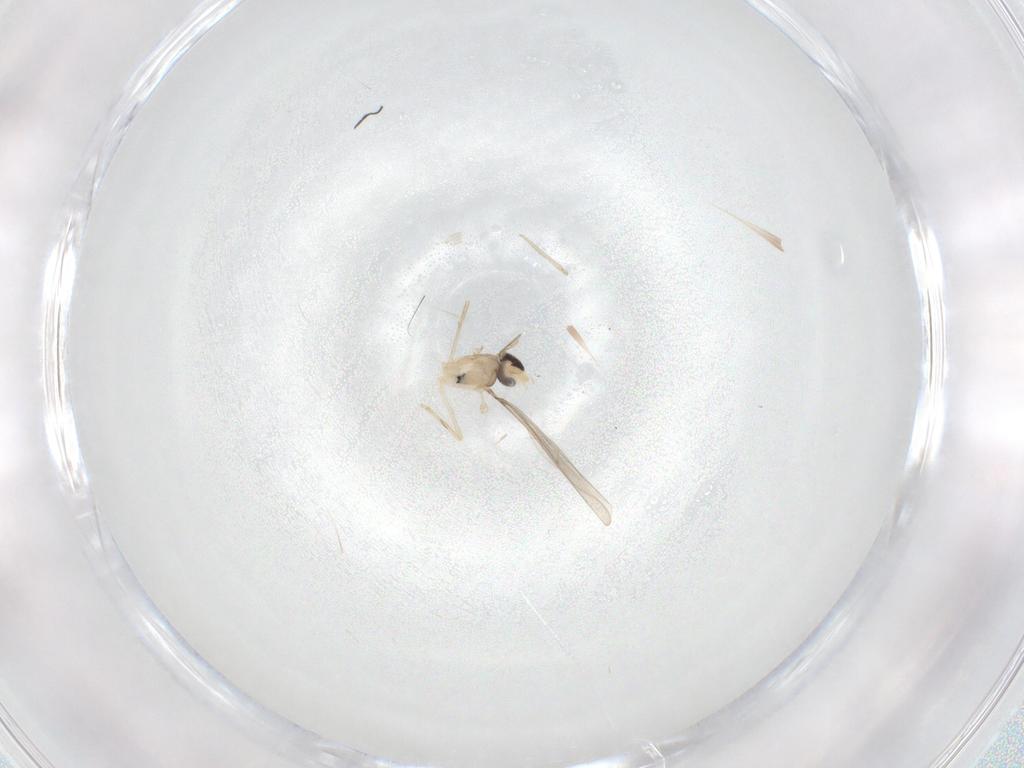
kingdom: Animalia
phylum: Arthropoda
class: Insecta
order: Diptera
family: Cecidomyiidae
